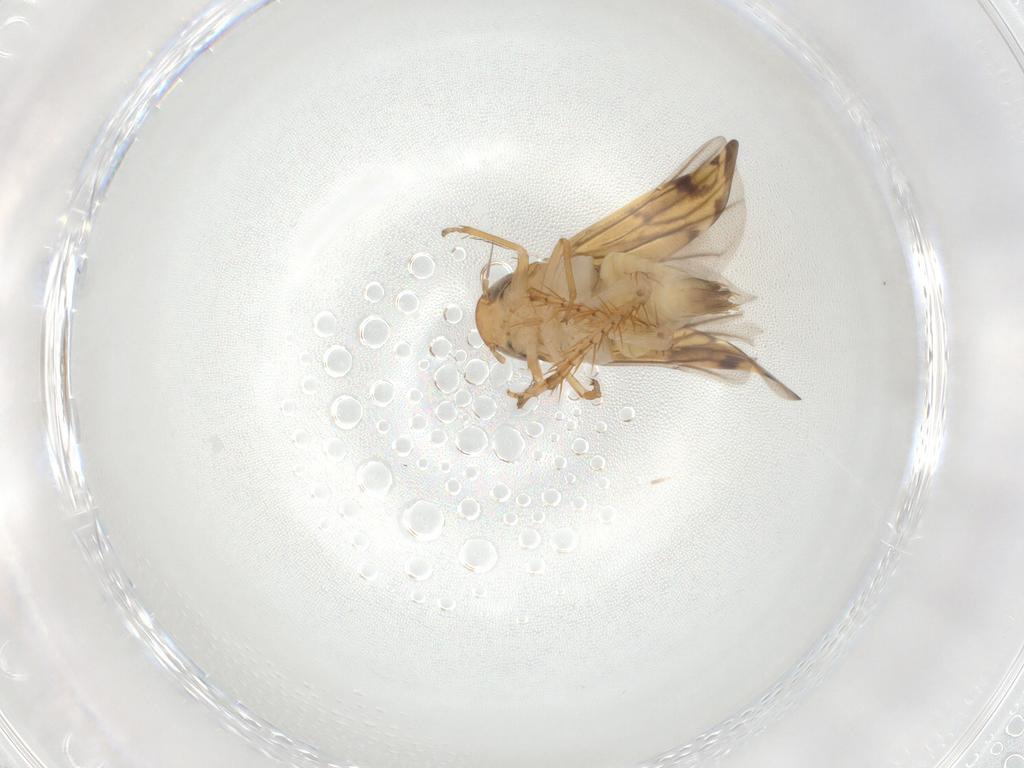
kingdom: Animalia
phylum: Arthropoda
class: Insecta
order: Hemiptera
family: Cicadellidae
